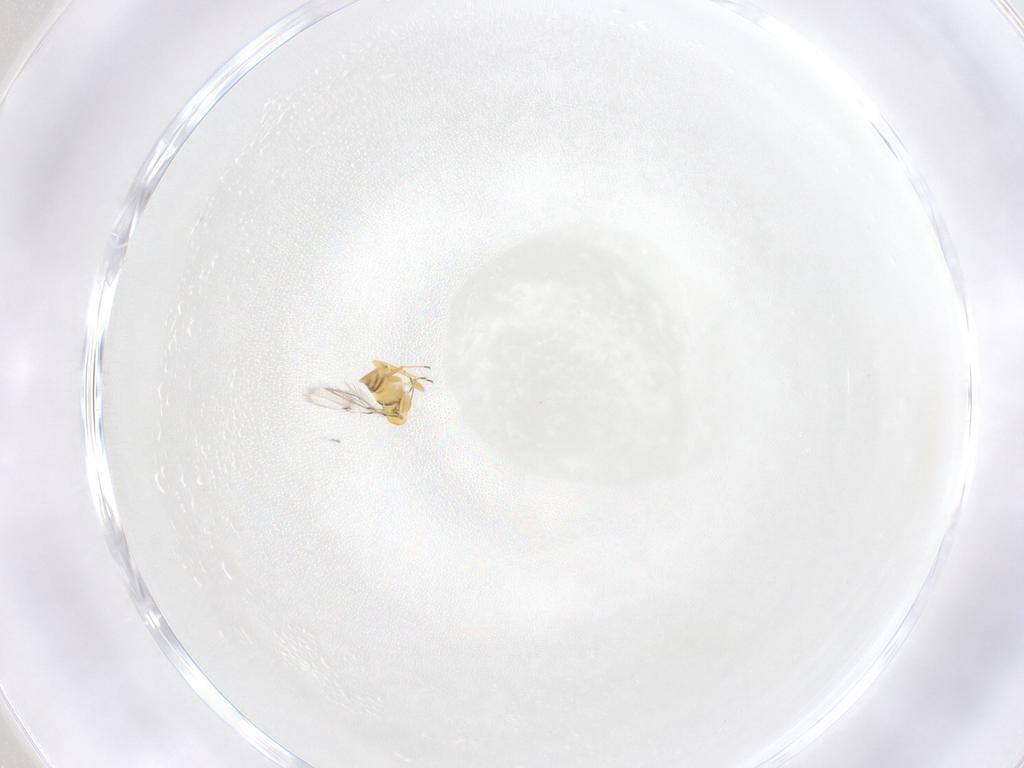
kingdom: Animalia
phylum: Arthropoda
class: Insecta
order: Hymenoptera
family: Trichogrammatidae
